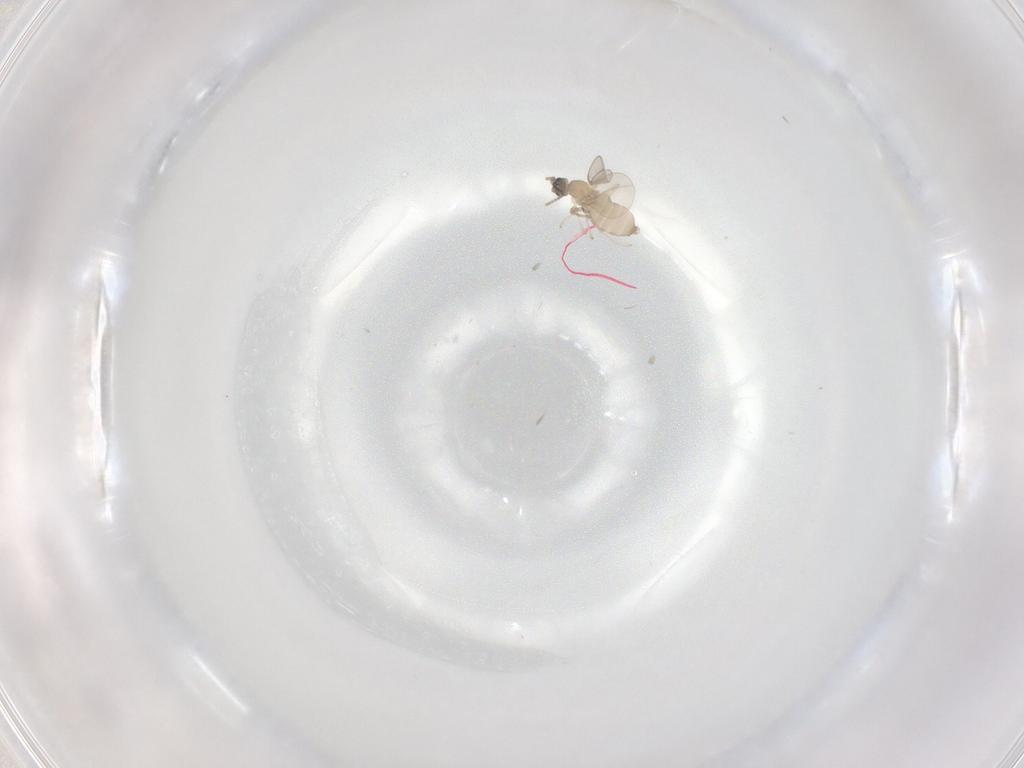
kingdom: Animalia
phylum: Arthropoda
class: Insecta
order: Diptera
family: Cecidomyiidae
